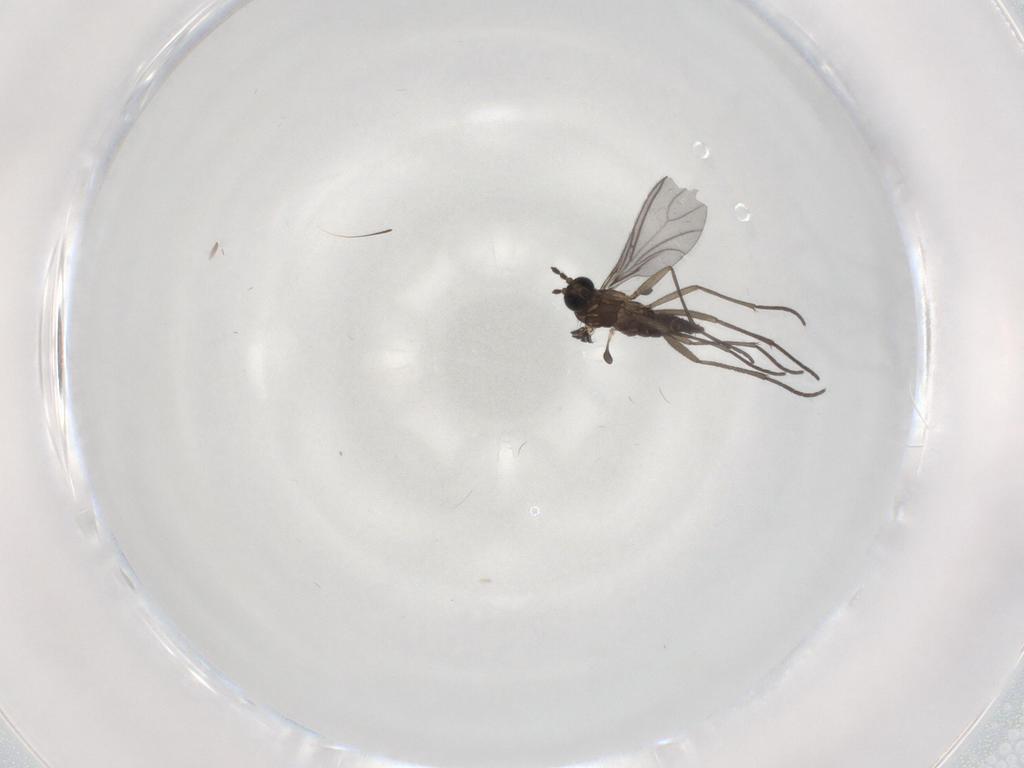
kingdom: Animalia
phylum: Arthropoda
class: Insecta
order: Diptera
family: Sciaridae
